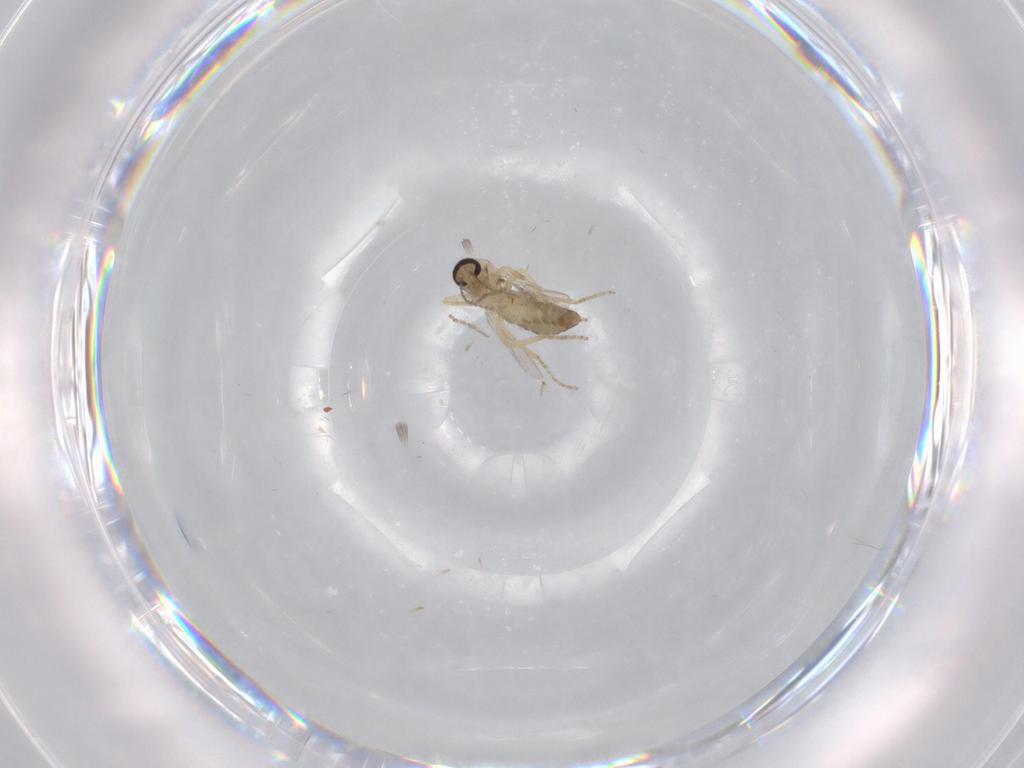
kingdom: Animalia
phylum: Arthropoda
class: Insecta
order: Diptera
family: Ceratopogonidae
